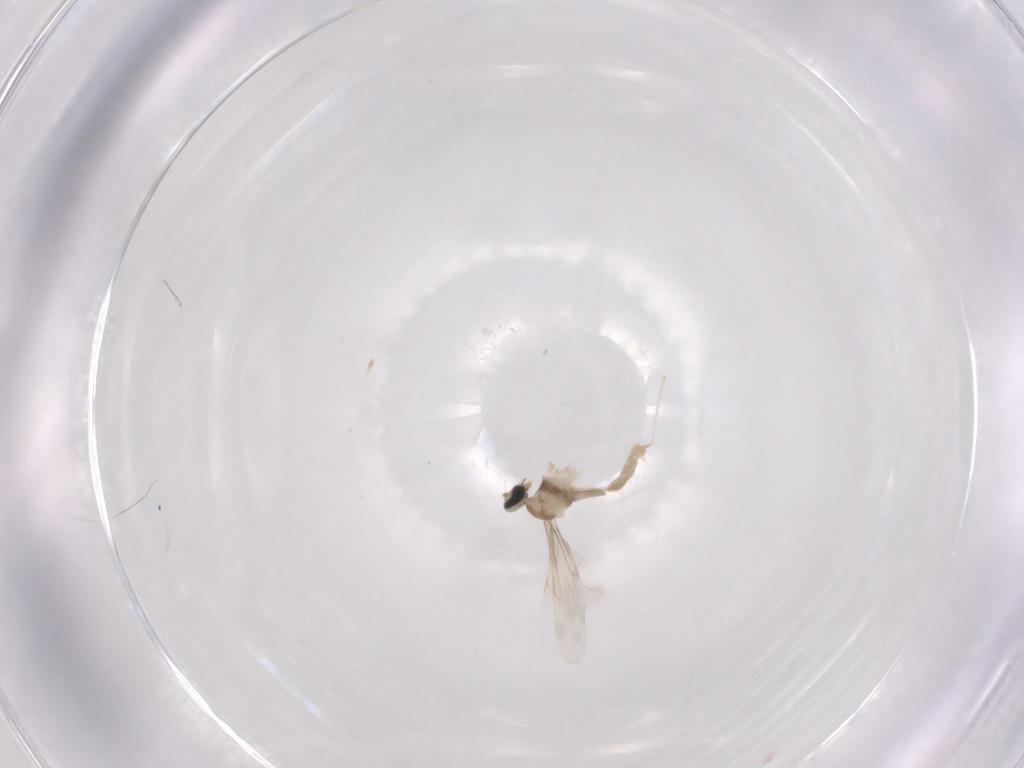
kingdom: Animalia
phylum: Arthropoda
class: Insecta
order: Diptera
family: Cecidomyiidae
